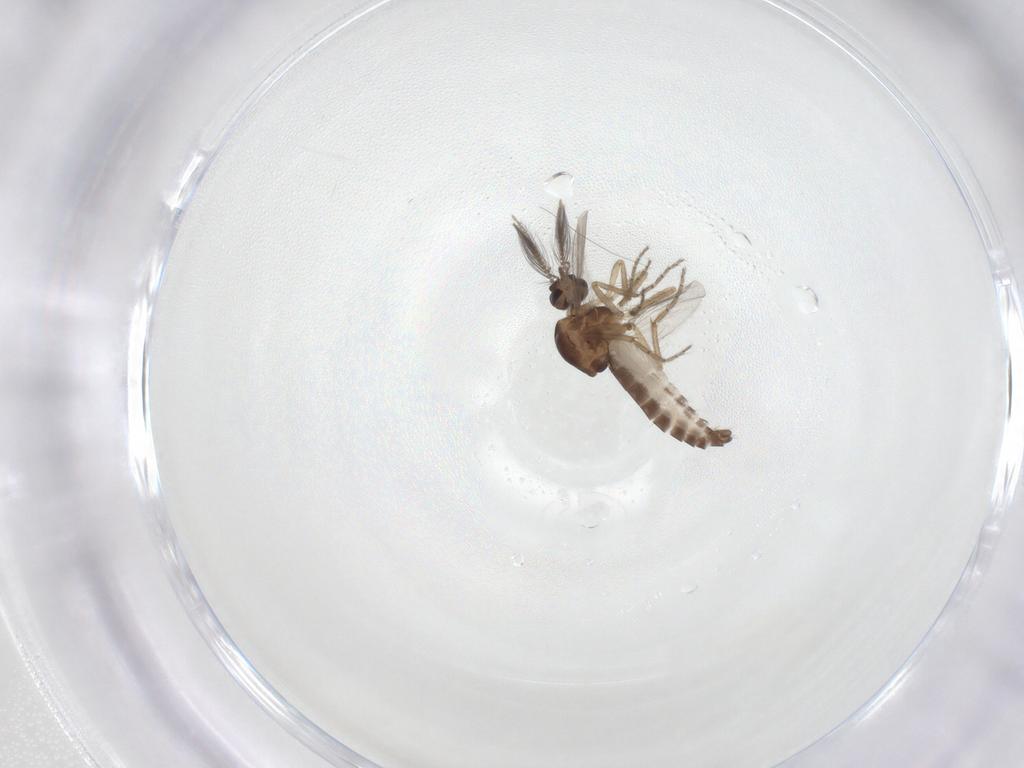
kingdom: Animalia
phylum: Arthropoda
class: Insecta
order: Diptera
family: Ceratopogonidae
